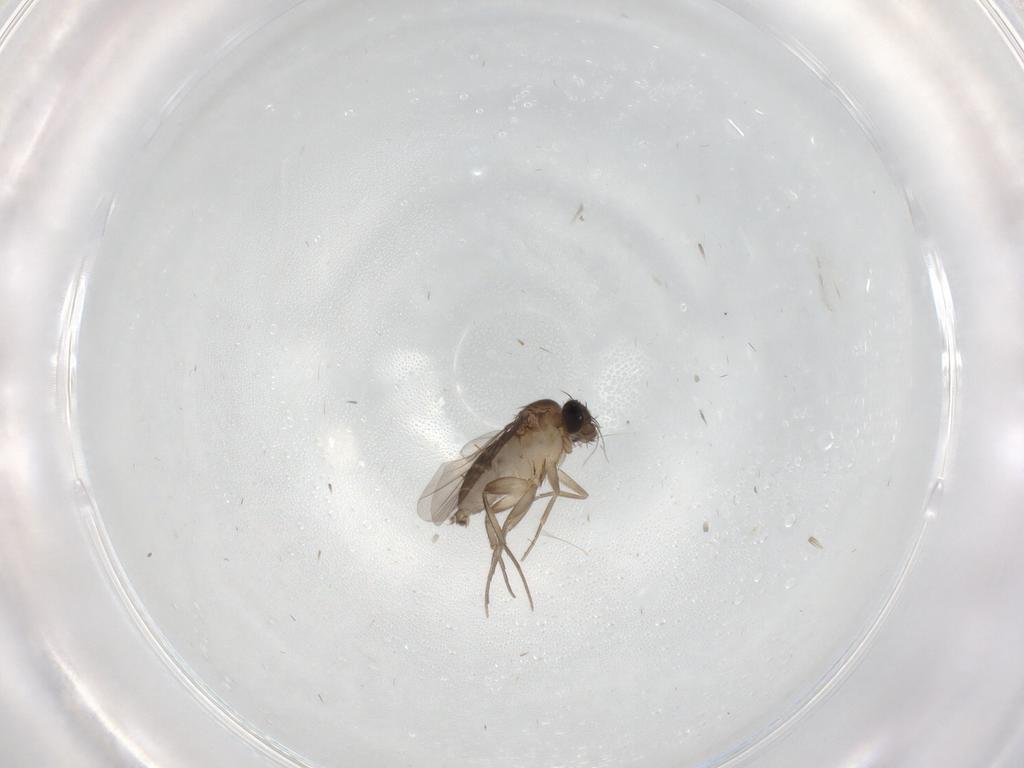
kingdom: Animalia
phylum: Arthropoda
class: Insecta
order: Diptera
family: Phoridae
